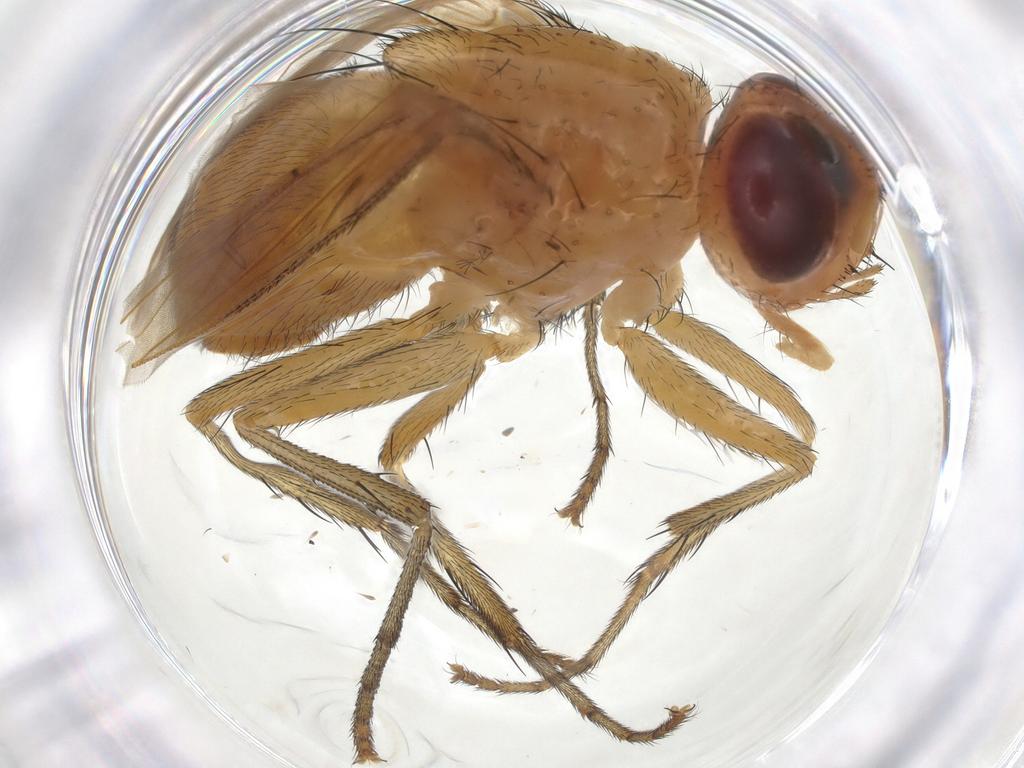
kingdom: Animalia
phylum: Arthropoda
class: Insecta
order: Diptera
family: Tachinidae
